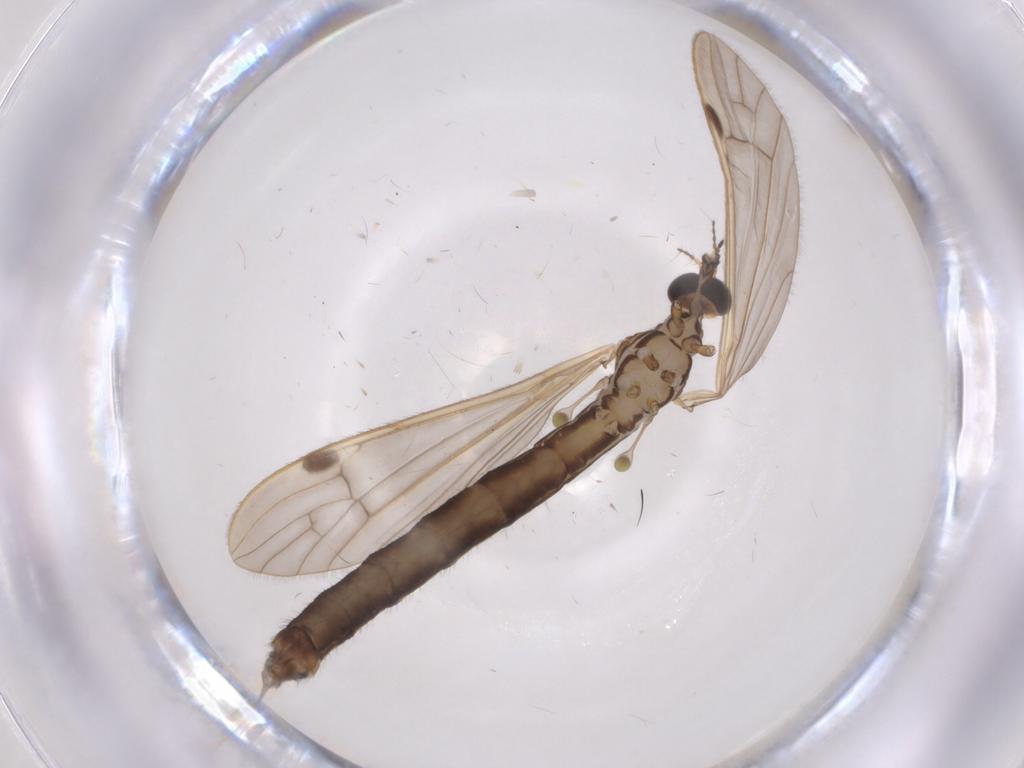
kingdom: Animalia
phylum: Arthropoda
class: Insecta
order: Diptera
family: Limoniidae
